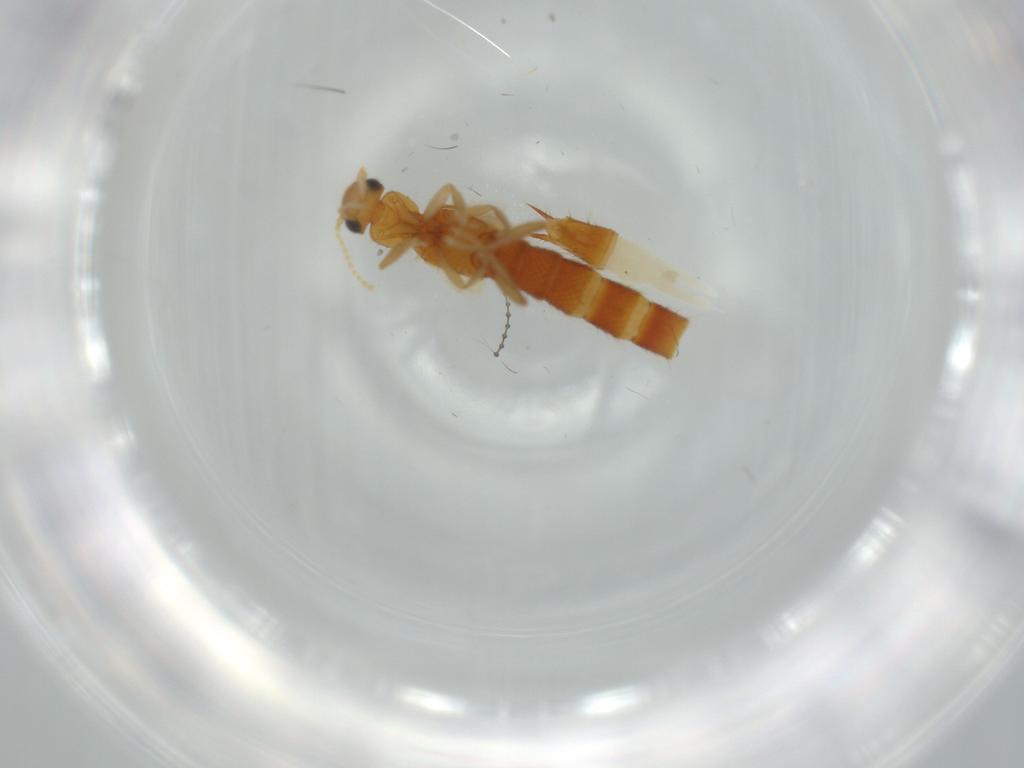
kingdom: Animalia
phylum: Arthropoda
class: Insecta
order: Coleoptera
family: Staphylinidae
